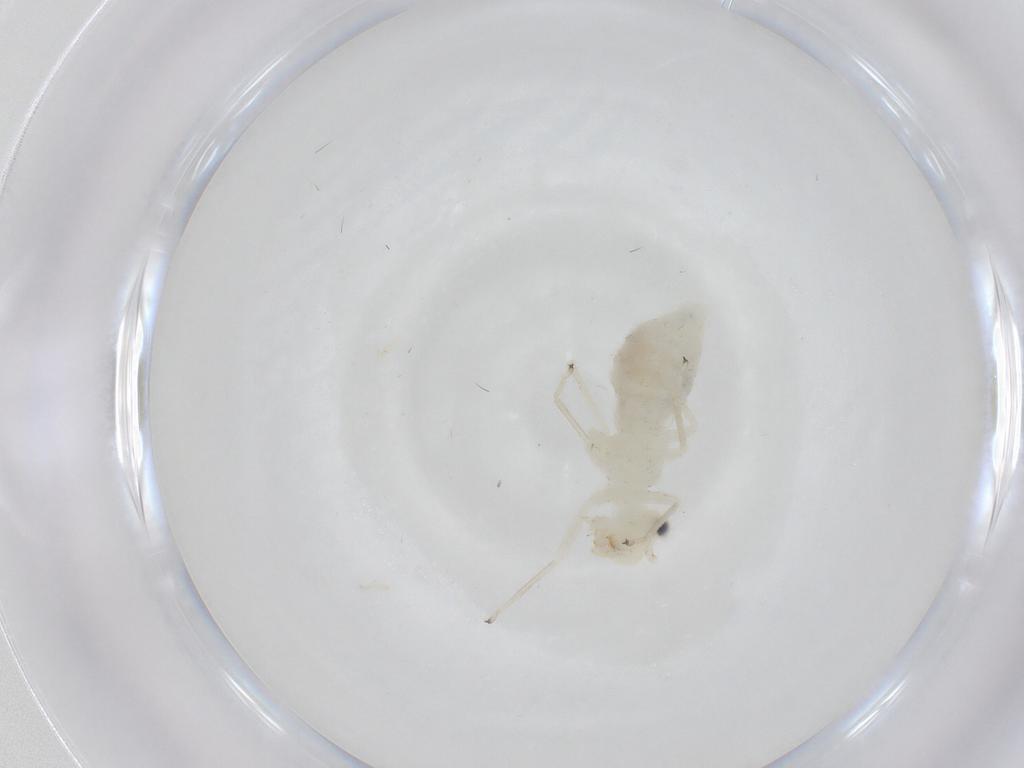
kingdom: Animalia
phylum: Arthropoda
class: Insecta
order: Psocodea
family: Caeciliusidae
